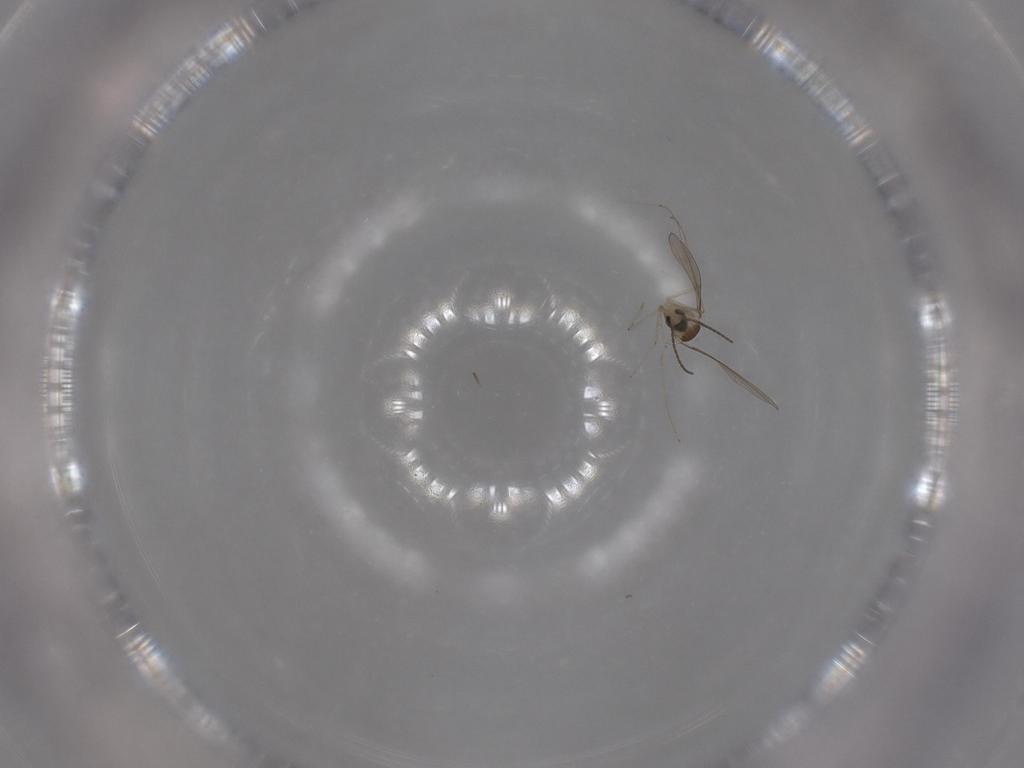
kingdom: Animalia
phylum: Arthropoda
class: Insecta
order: Diptera
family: Cecidomyiidae
